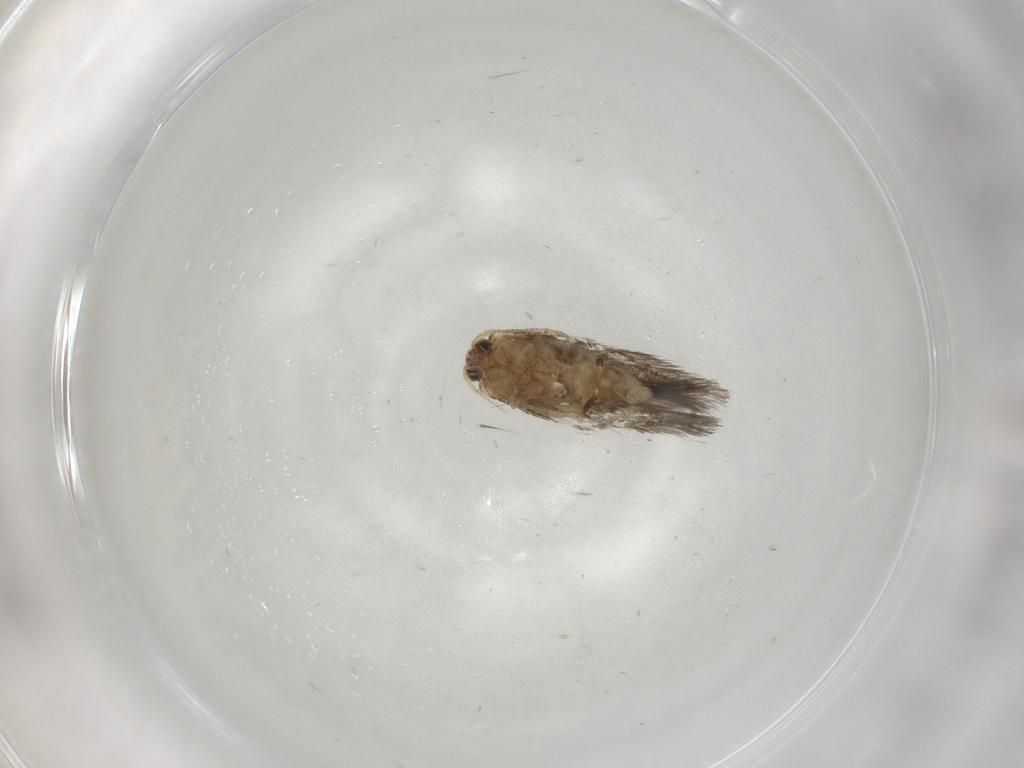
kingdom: Animalia
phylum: Arthropoda
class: Insecta
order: Lepidoptera
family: Nepticulidae
